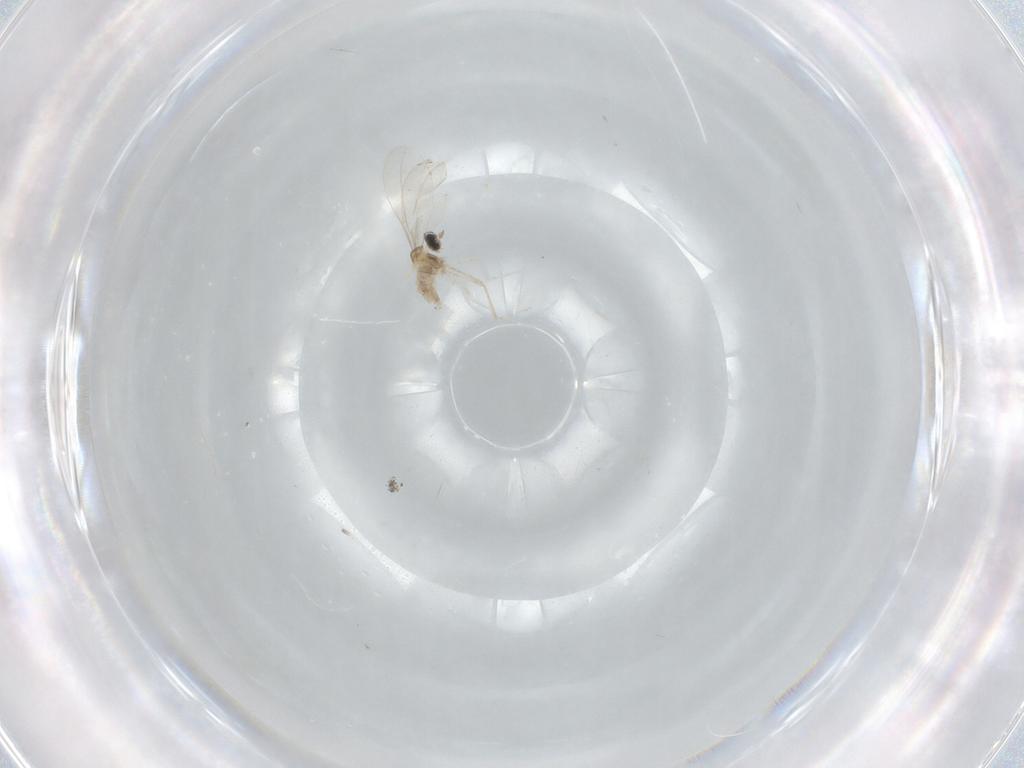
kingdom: Animalia
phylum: Arthropoda
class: Insecta
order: Diptera
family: Cecidomyiidae
